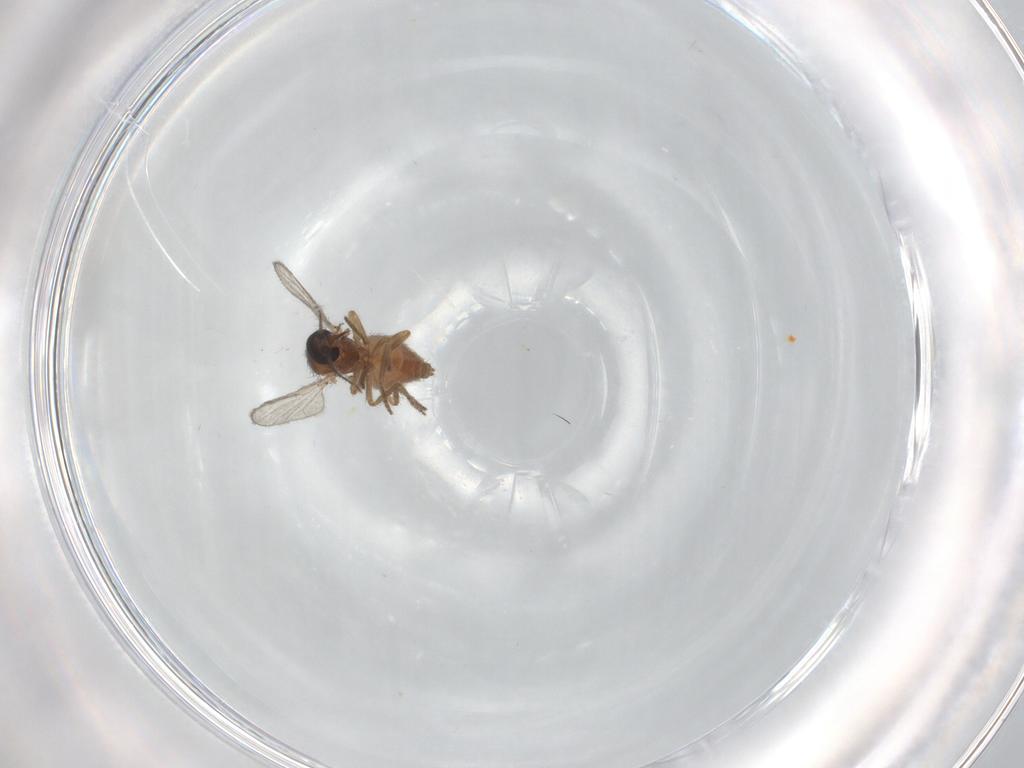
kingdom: Animalia
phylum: Arthropoda
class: Insecta
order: Diptera
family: Ceratopogonidae
